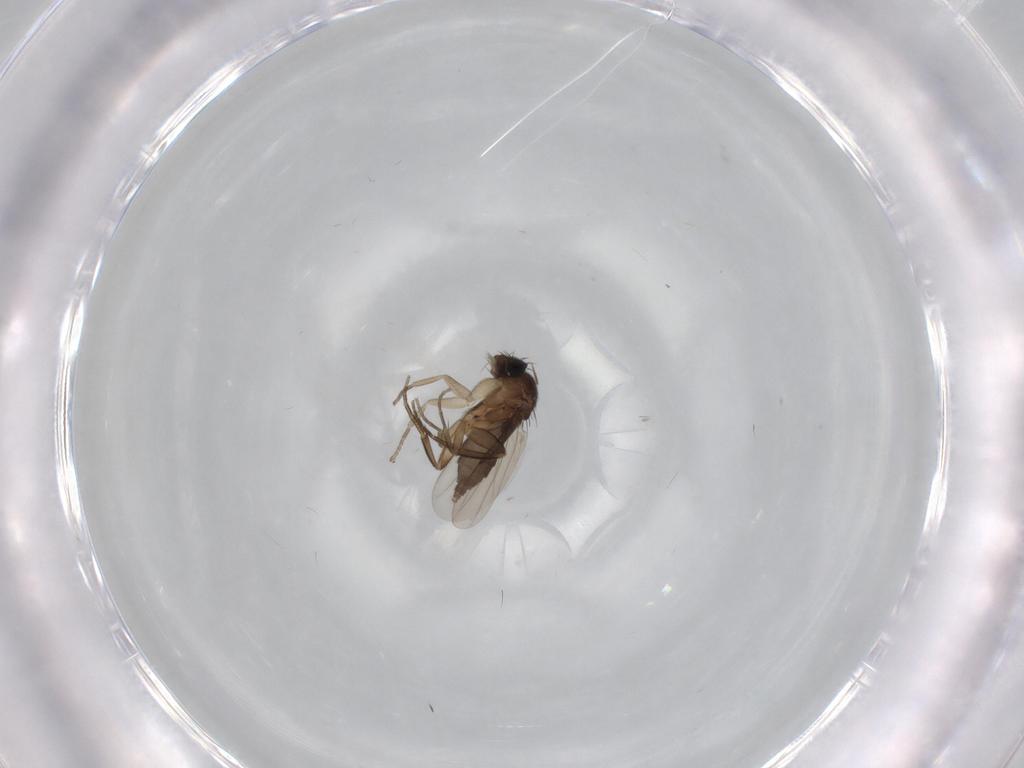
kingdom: Animalia
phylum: Arthropoda
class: Insecta
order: Diptera
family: Phoridae
